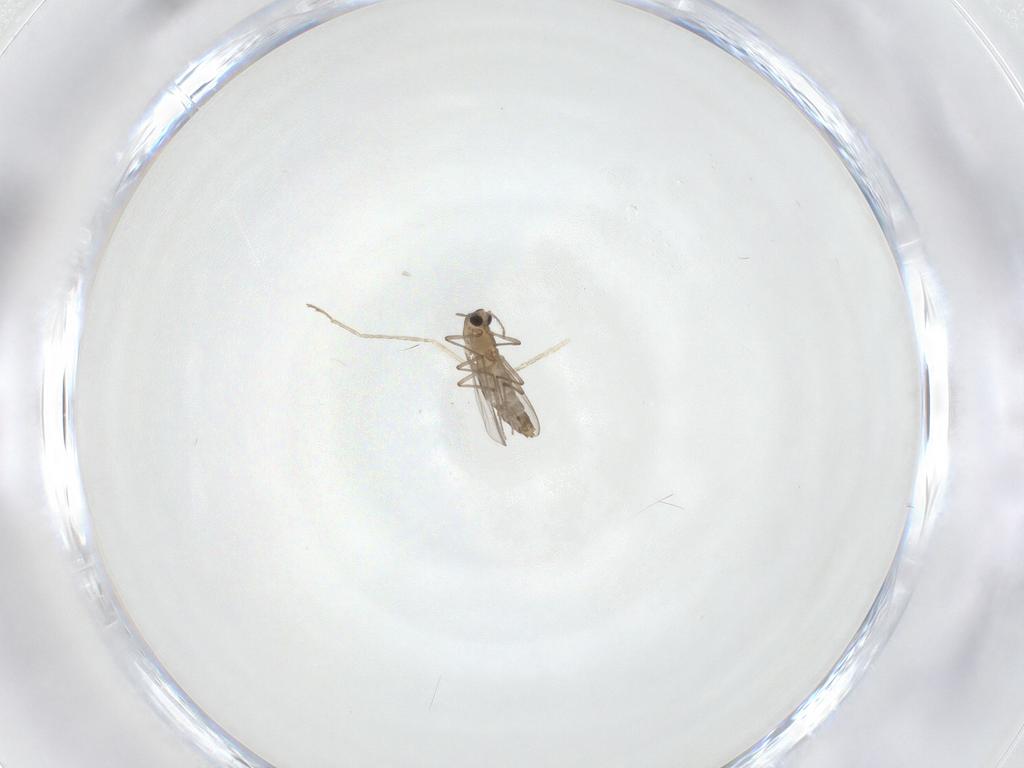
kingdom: Animalia
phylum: Arthropoda
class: Insecta
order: Diptera
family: Chironomidae
